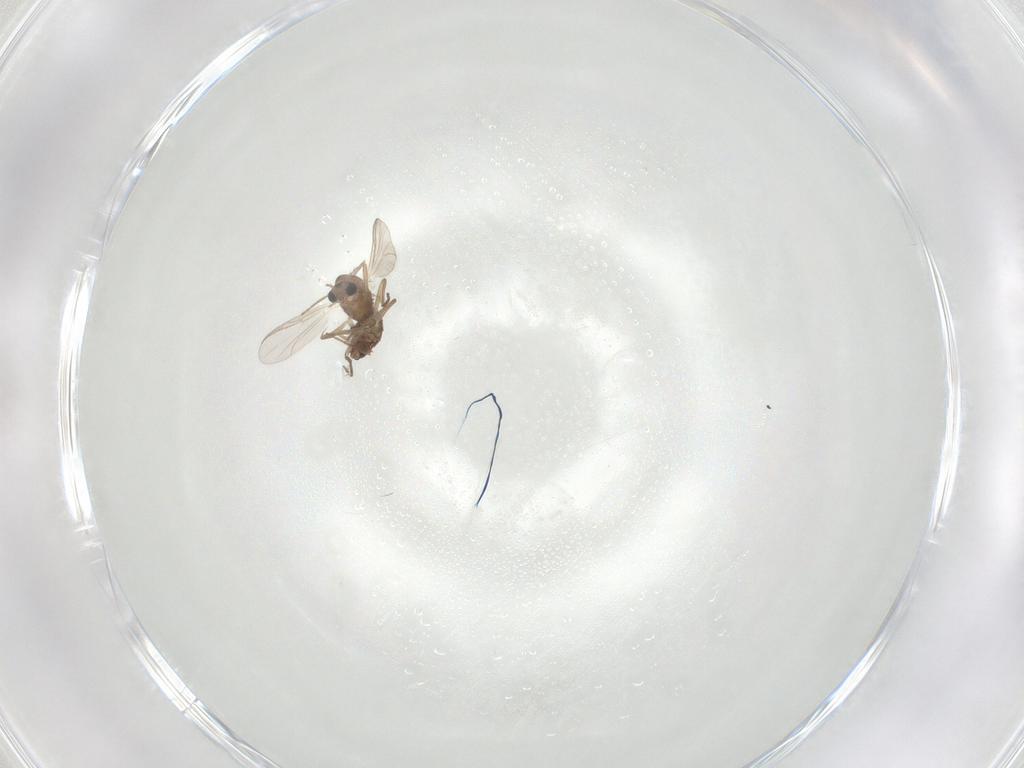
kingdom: Animalia
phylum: Arthropoda
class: Insecta
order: Diptera
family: Chironomidae
